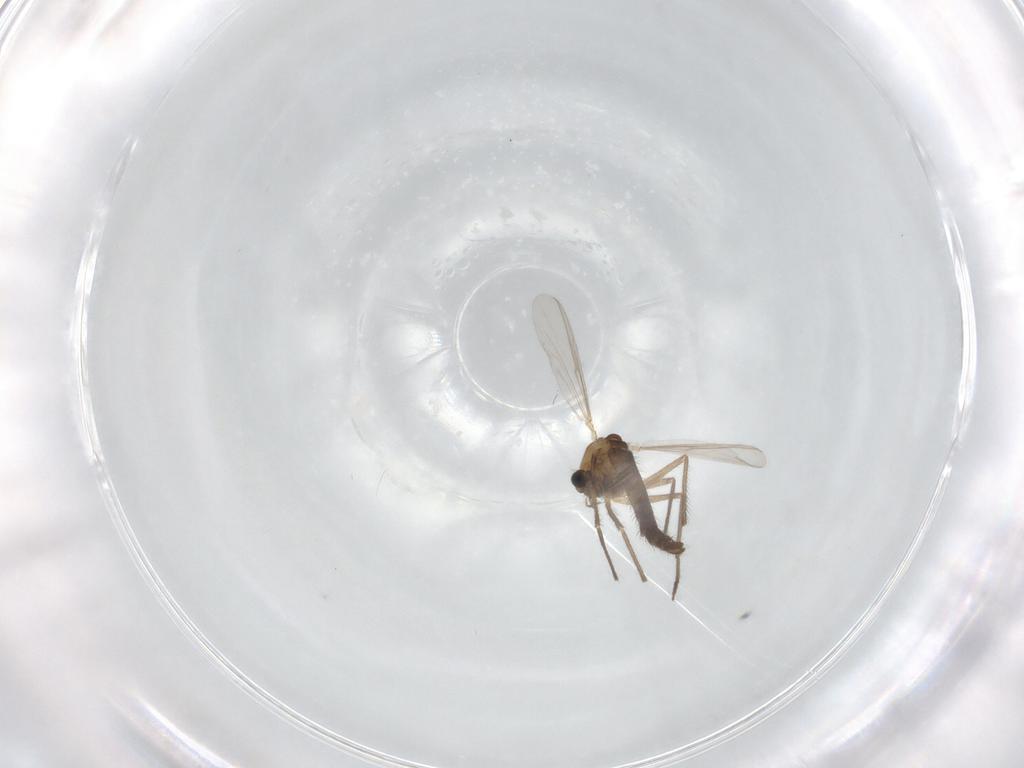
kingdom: Animalia
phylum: Arthropoda
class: Insecta
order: Diptera
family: Chironomidae
